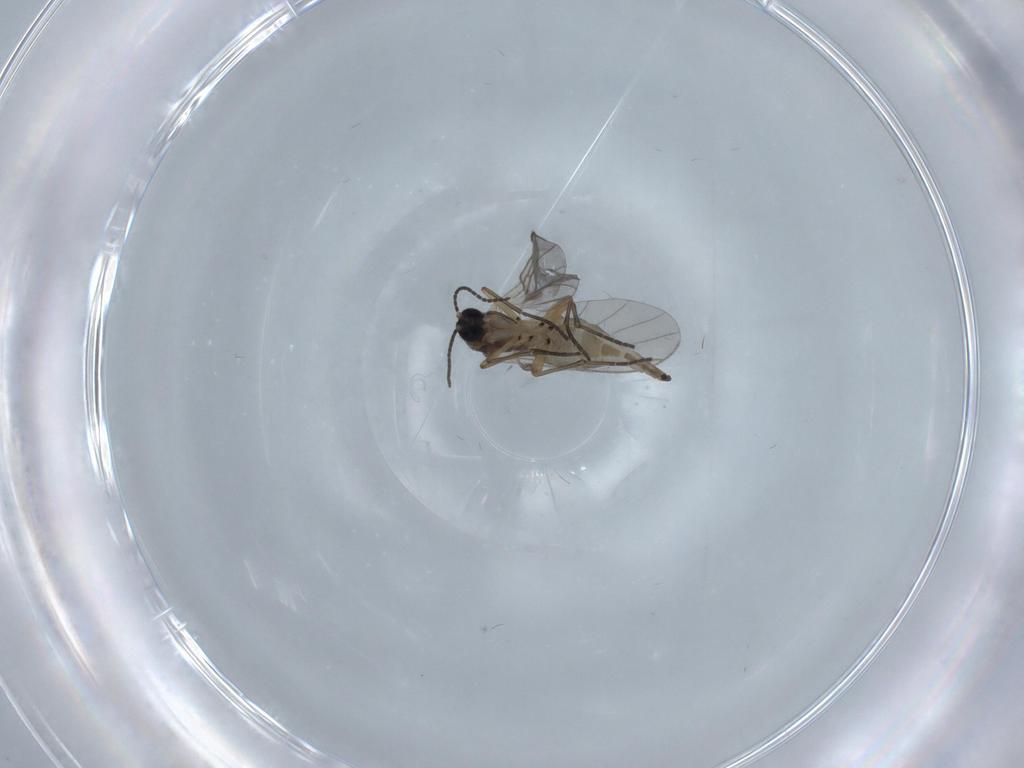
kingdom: Animalia
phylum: Arthropoda
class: Insecta
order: Diptera
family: Sciaridae
